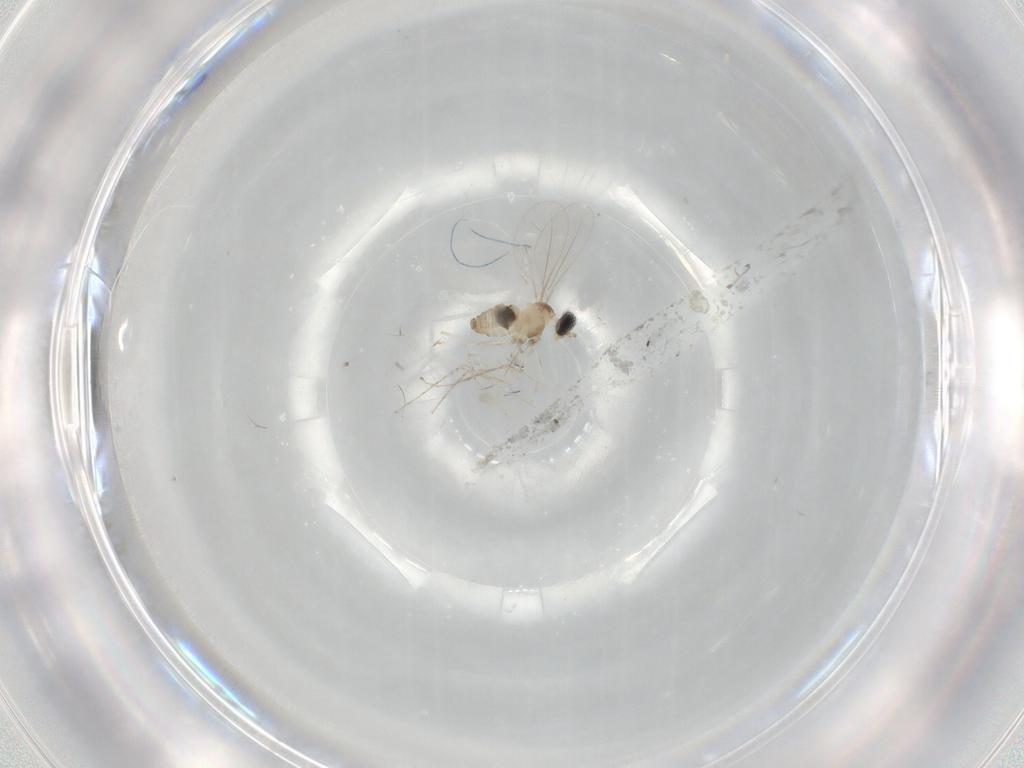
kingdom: Animalia
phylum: Arthropoda
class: Insecta
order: Diptera
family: Cecidomyiidae
